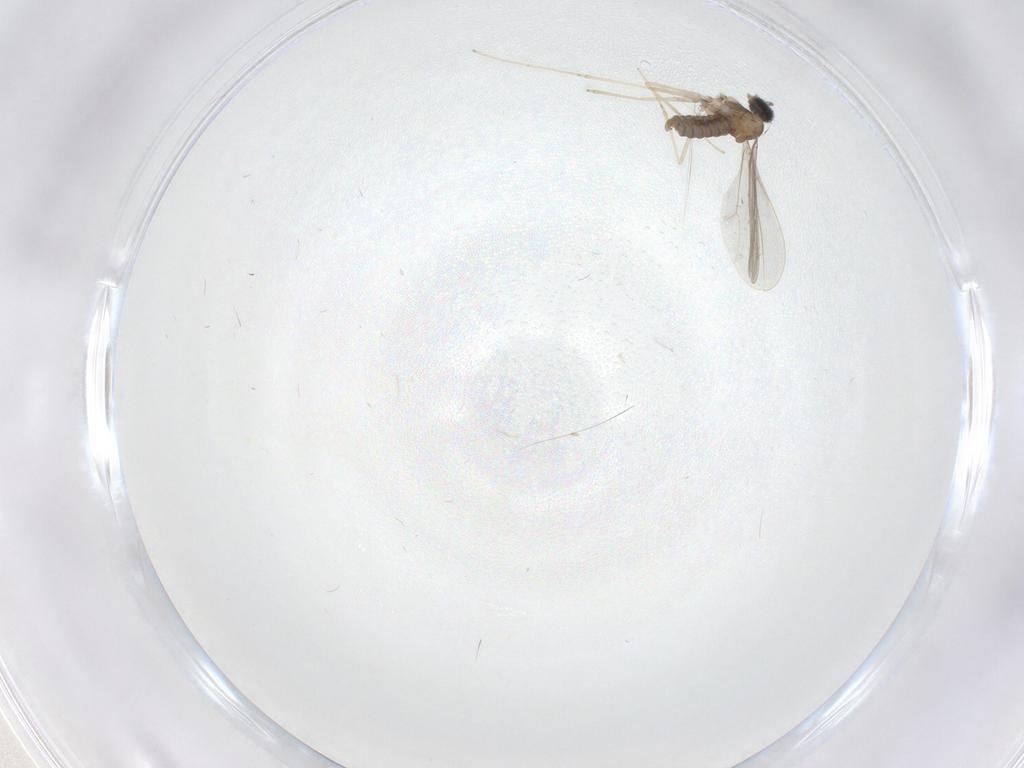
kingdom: Animalia
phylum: Arthropoda
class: Insecta
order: Diptera
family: Cecidomyiidae
